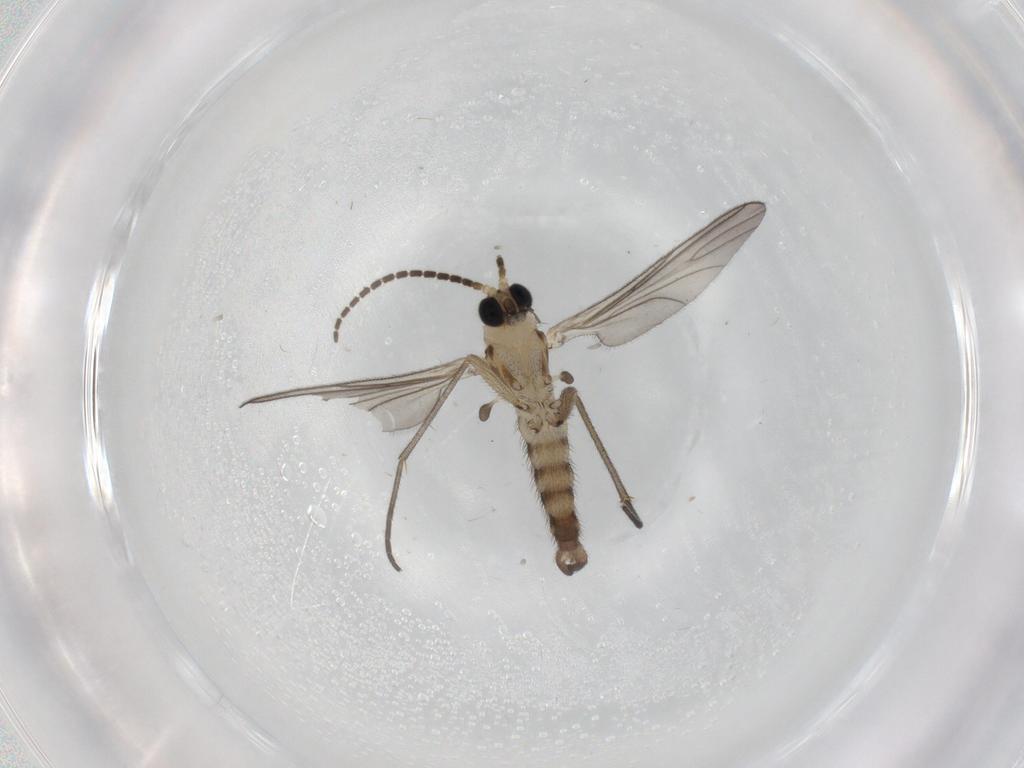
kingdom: Animalia
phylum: Arthropoda
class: Insecta
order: Diptera
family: Sciaridae
